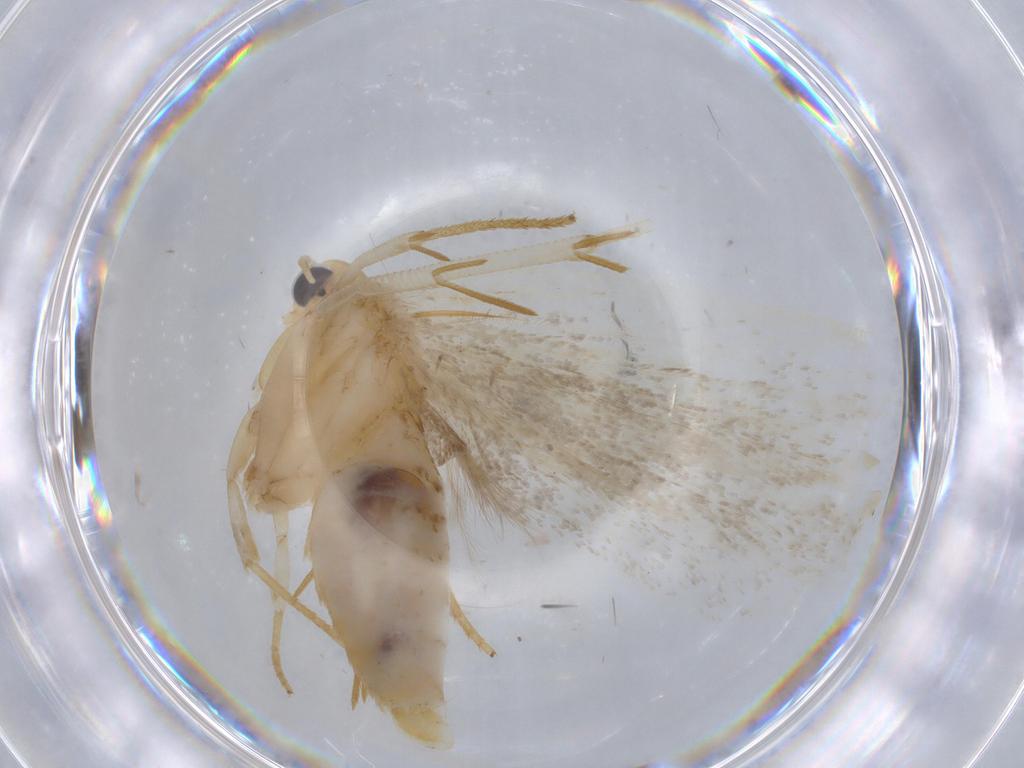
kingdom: Animalia
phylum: Arthropoda
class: Insecta
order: Lepidoptera
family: Gelechiidae
